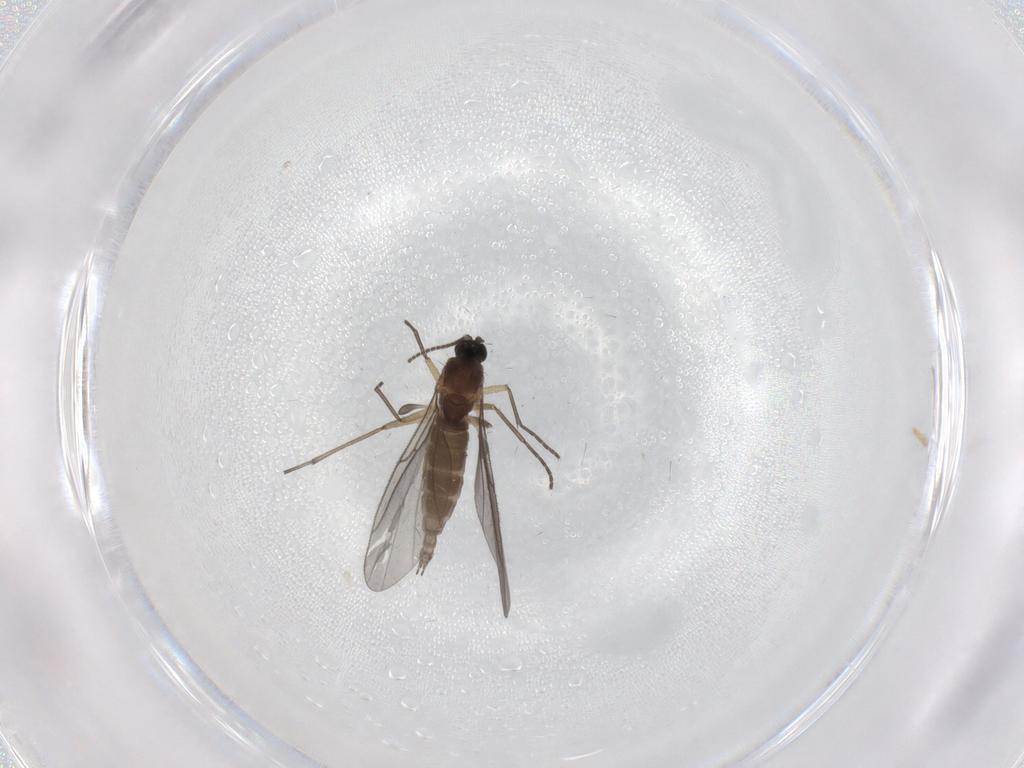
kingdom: Animalia
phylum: Arthropoda
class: Insecta
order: Diptera
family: Sciaridae
